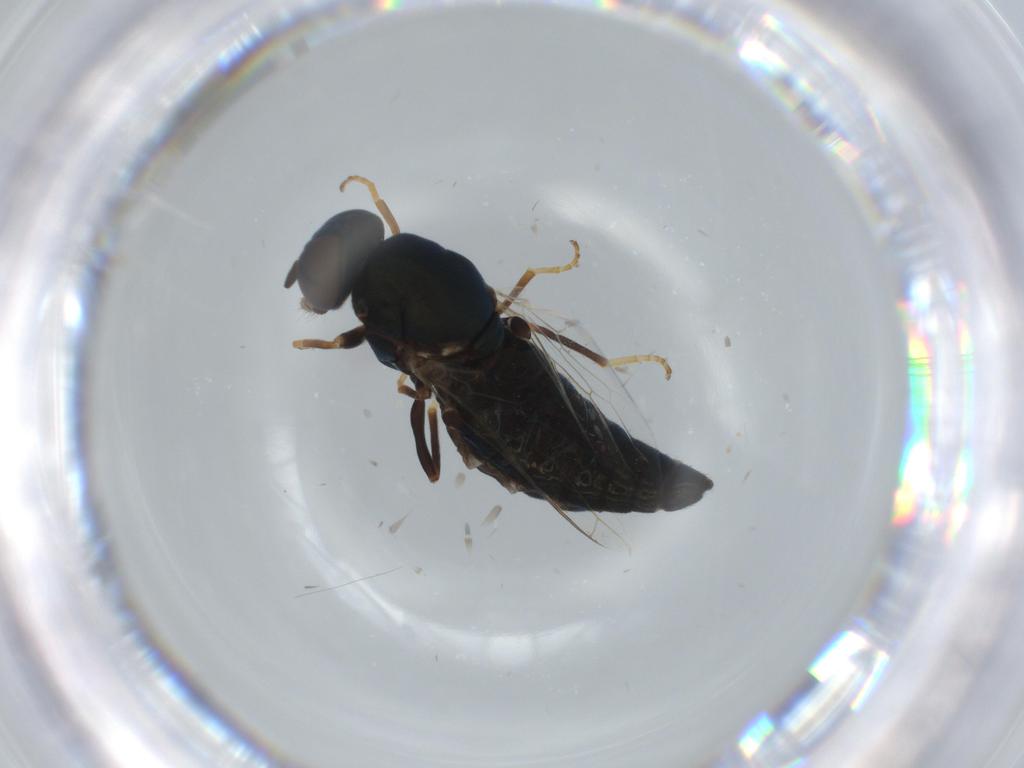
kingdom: Animalia
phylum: Arthropoda
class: Insecta
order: Diptera
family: Scenopinidae
